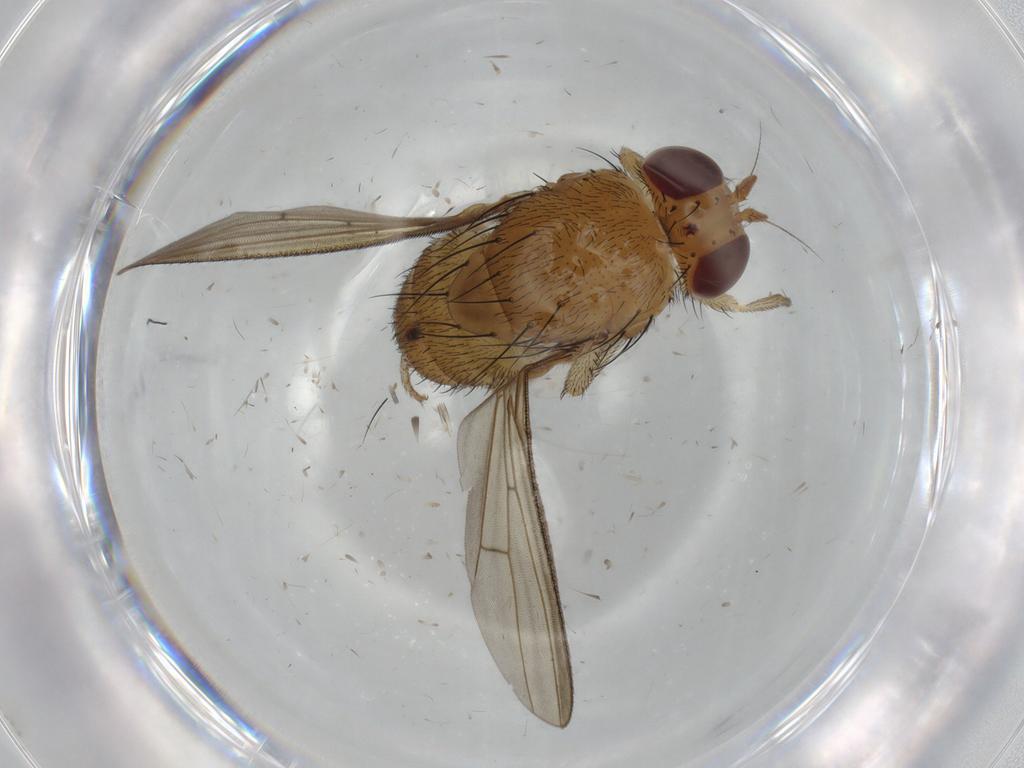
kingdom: Animalia
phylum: Arthropoda
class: Insecta
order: Diptera
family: Lauxaniidae
